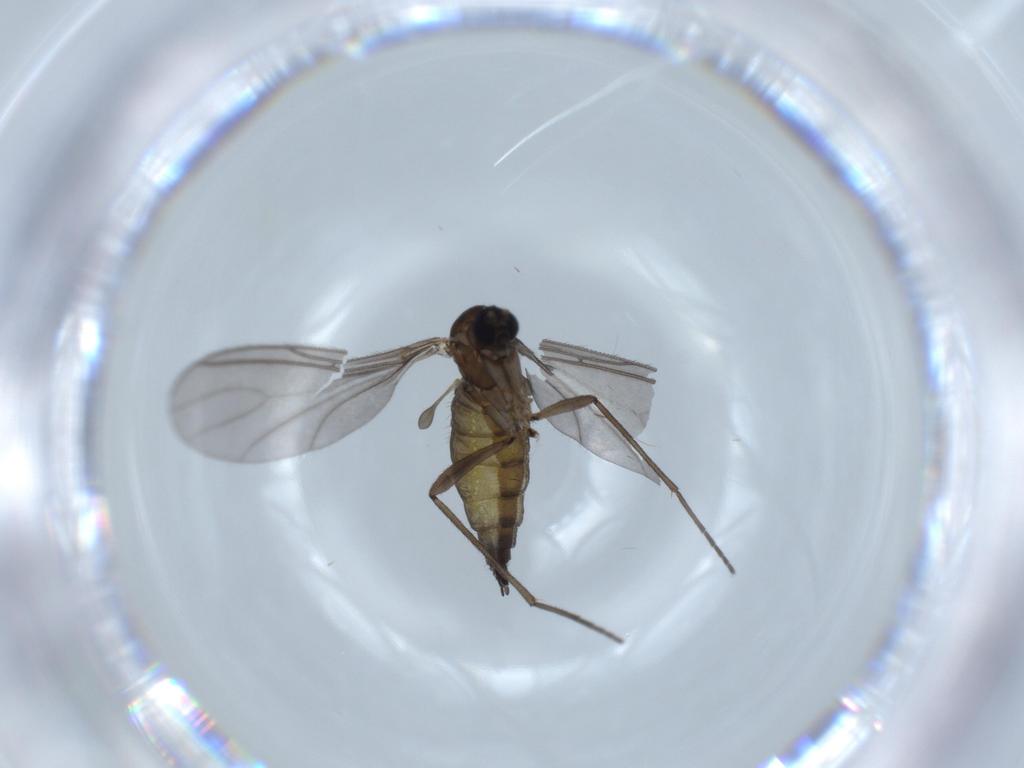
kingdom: Animalia
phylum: Arthropoda
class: Insecta
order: Diptera
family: Sciaridae
